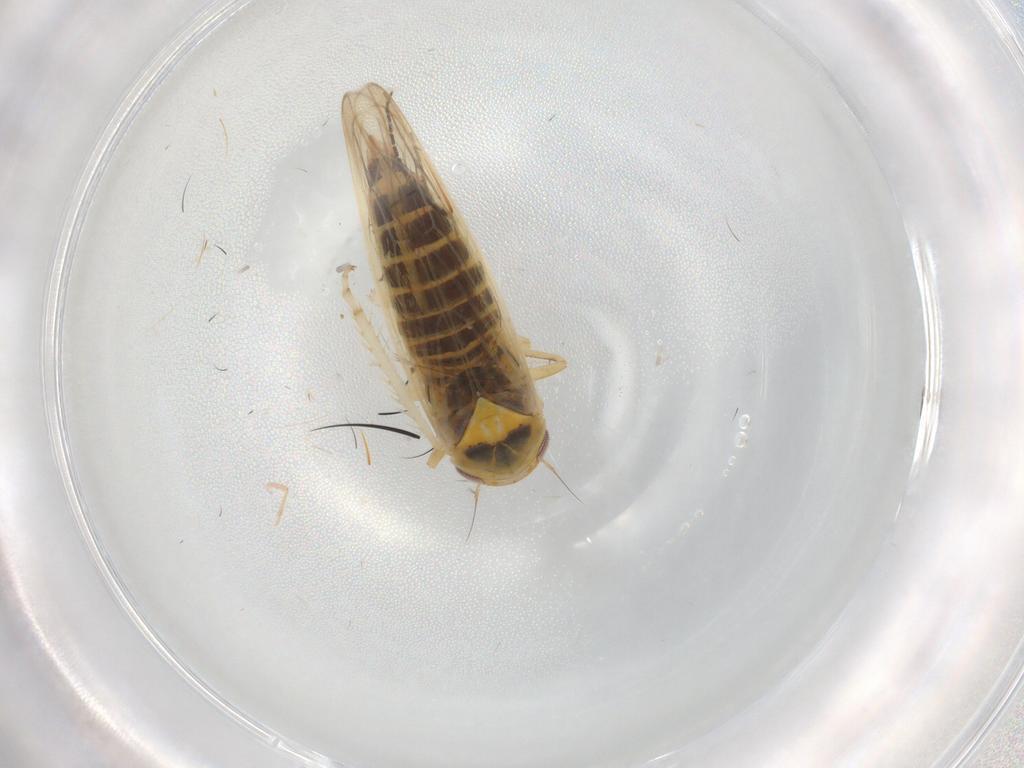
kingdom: Animalia
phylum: Arthropoda
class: Insecta
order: Hemiptera
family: Cicadellidae
